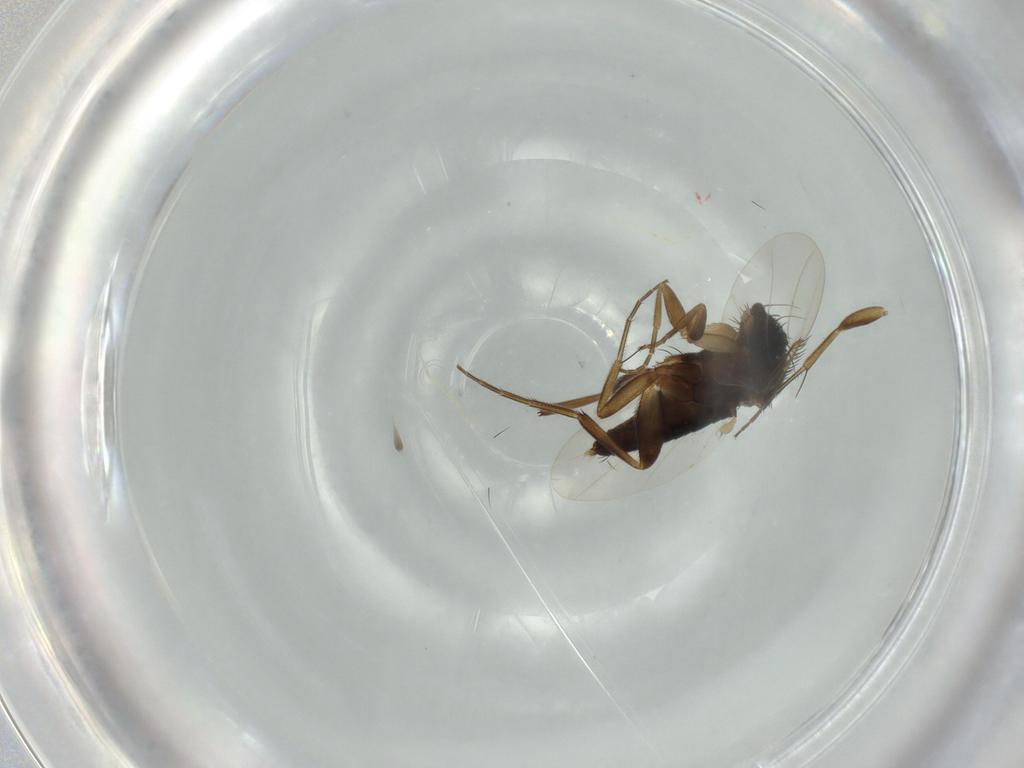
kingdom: Animalia
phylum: Arthropoda
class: Insecta
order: Diptera
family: Phoridae
